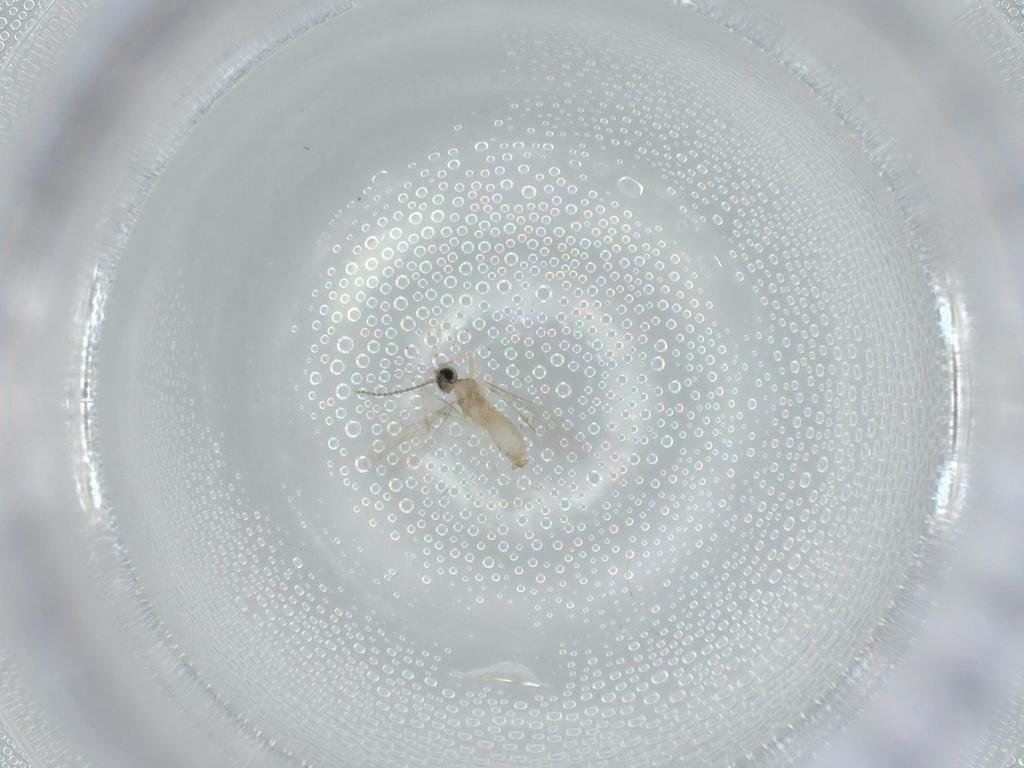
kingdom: Animalia
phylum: Arthropoda
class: Insecta
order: Diptera
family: Cecidomyiidae
